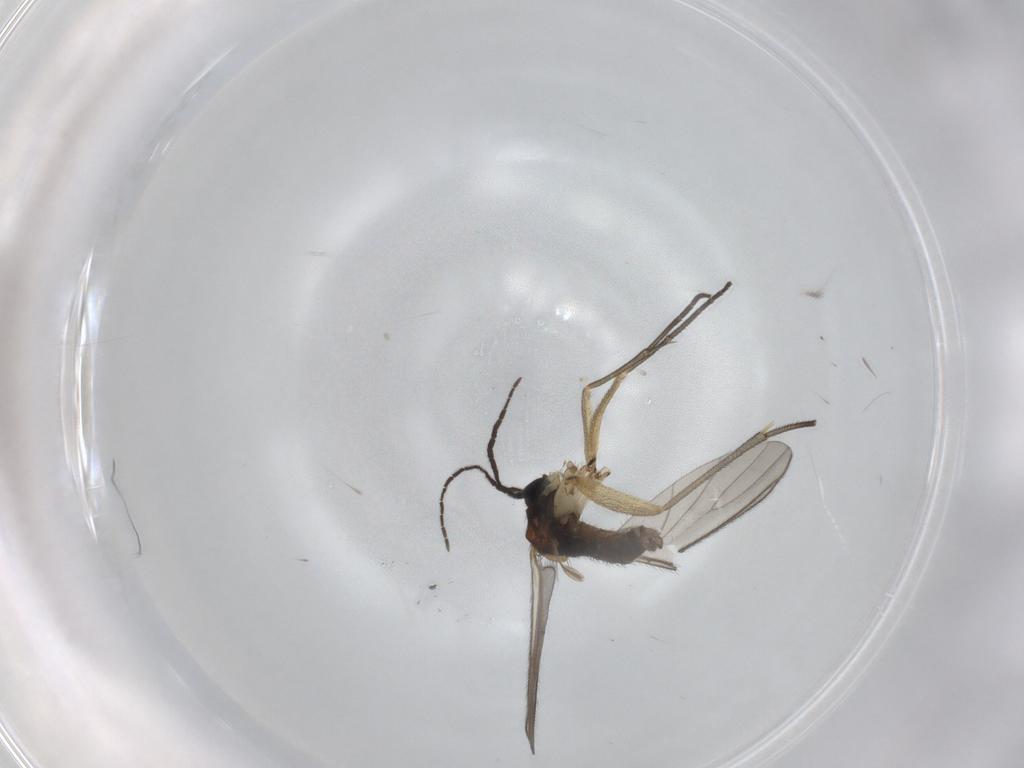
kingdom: Animalia
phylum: Arthropoda
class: Insecta
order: Diptera
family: Sciaridae
